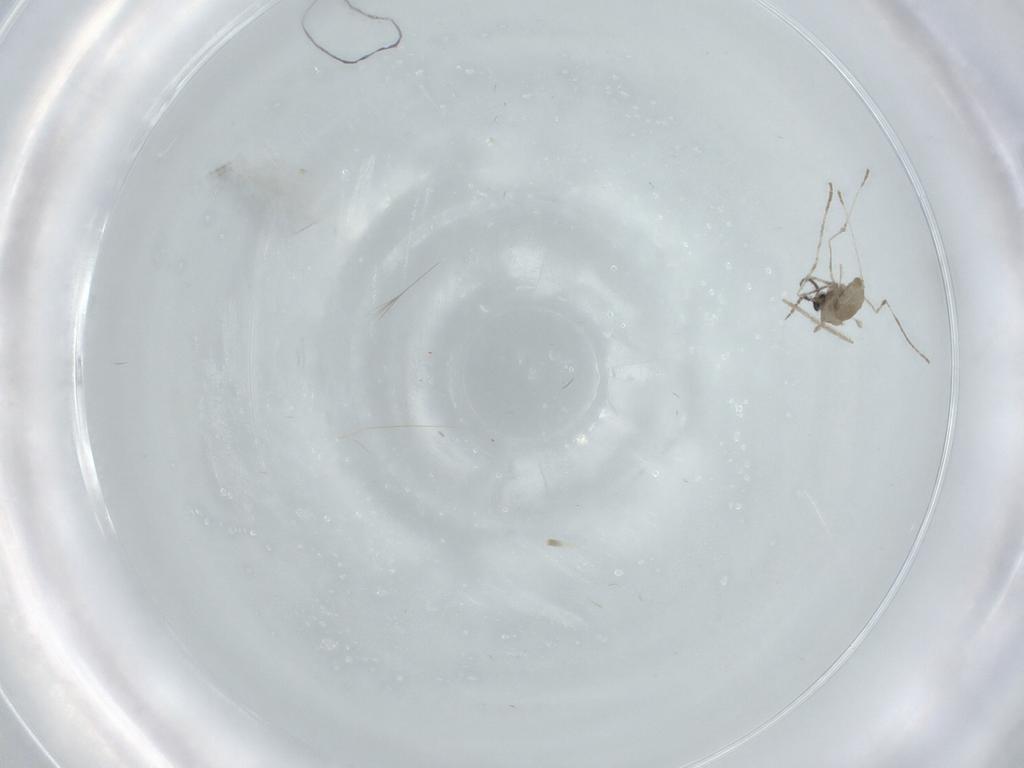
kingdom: Animalia
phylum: Arthropoda
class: Insecta
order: Diptera
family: Chironomidae
